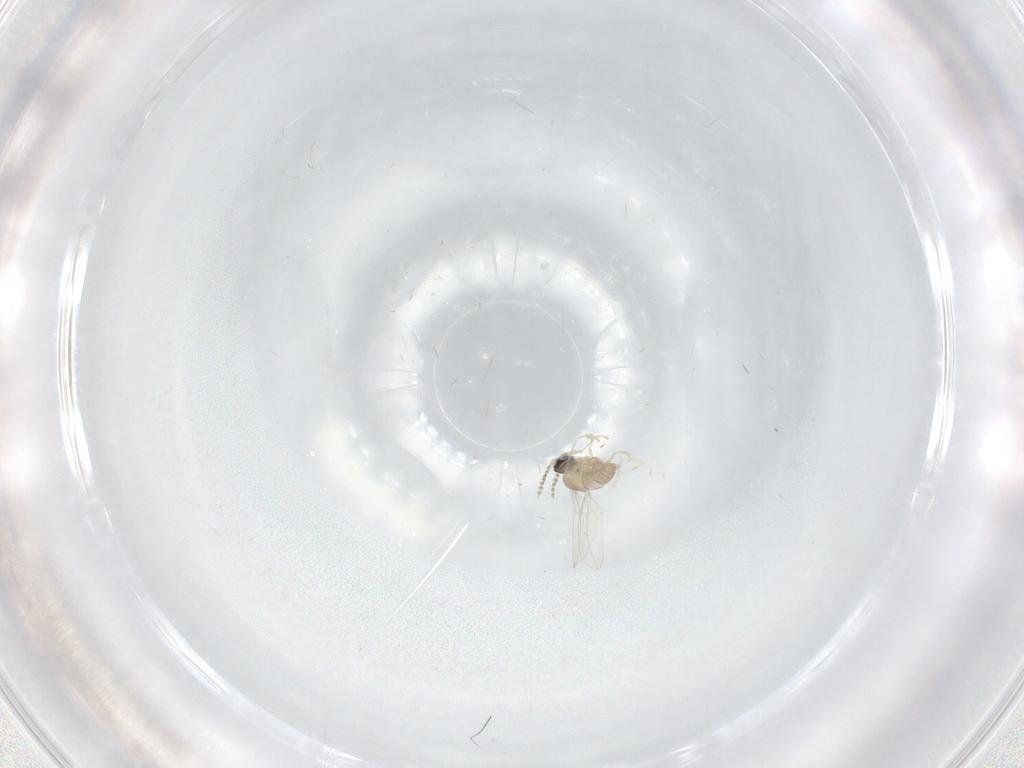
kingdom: Animalia
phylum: Arthropoda
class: Insecta
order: Diptera
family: Cecidomyiidae
